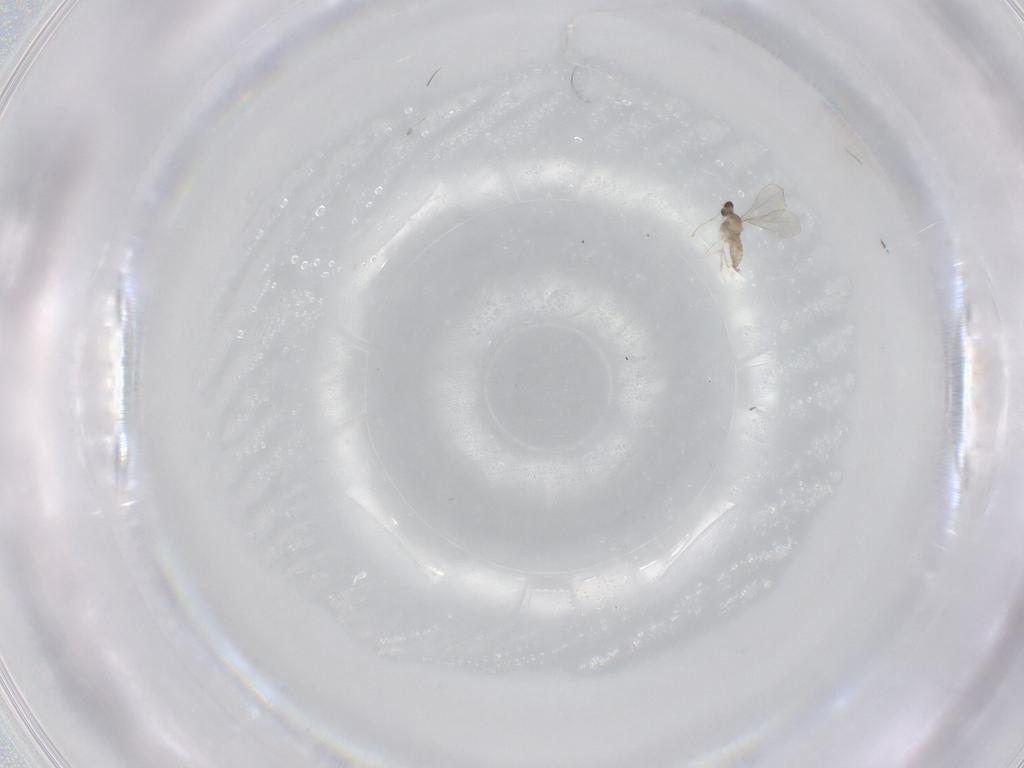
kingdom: Animalia
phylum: Arthropoda
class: Insecta
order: Diptera
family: Cecidomyiidae
